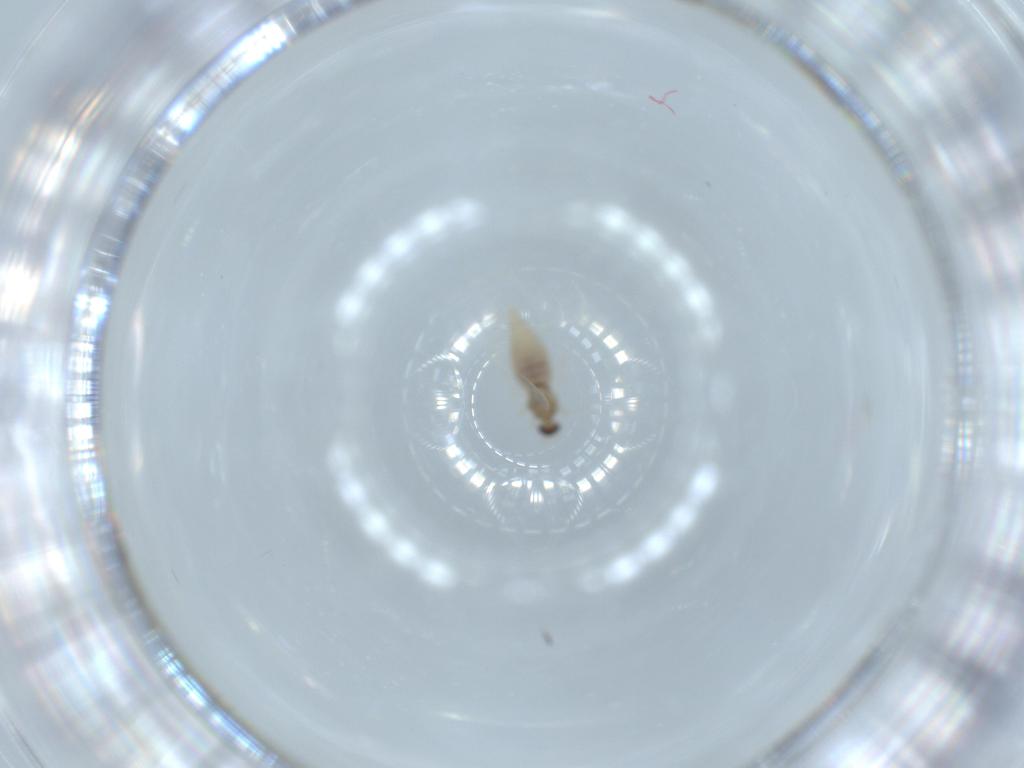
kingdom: Animalia
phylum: Arthropoda
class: Insecta
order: Diptera
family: Cecidomyiidae
